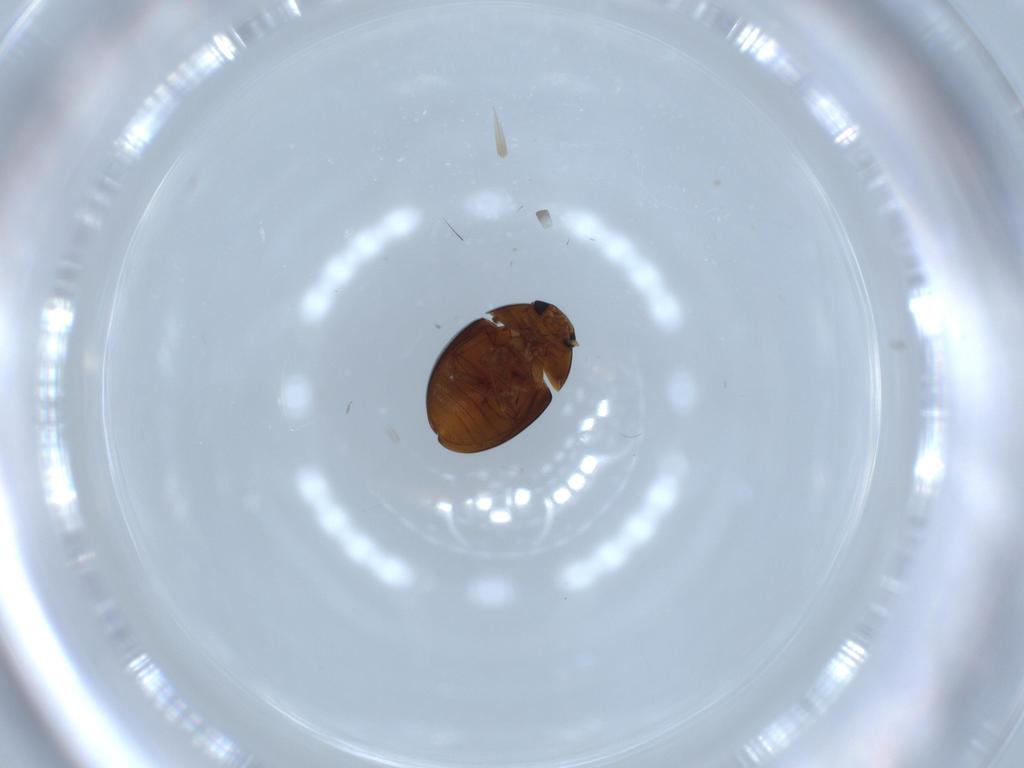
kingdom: Animalia
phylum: Arthropoda
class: Insecta
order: Coleoptera
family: Phalacridae
